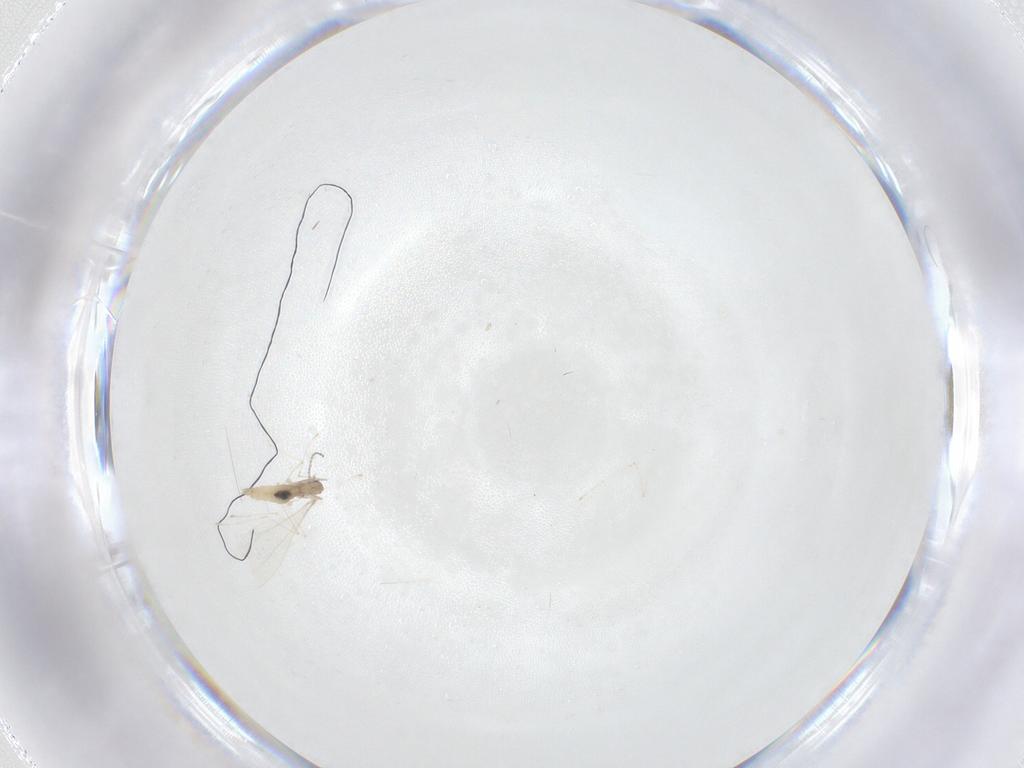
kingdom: Animalia
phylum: Arthropoda
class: Insecta
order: Diptera
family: Cecidomyiidae
